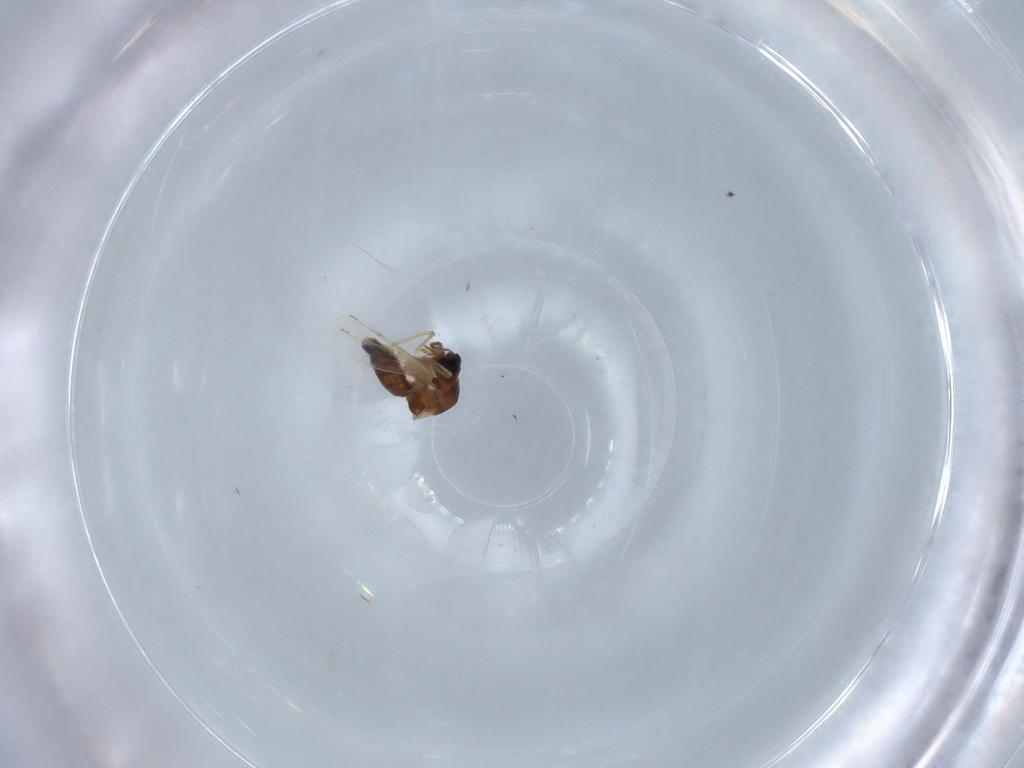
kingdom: Animalia
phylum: Arthropoda
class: Insecta
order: Diptera
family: Ceratopogonidae
